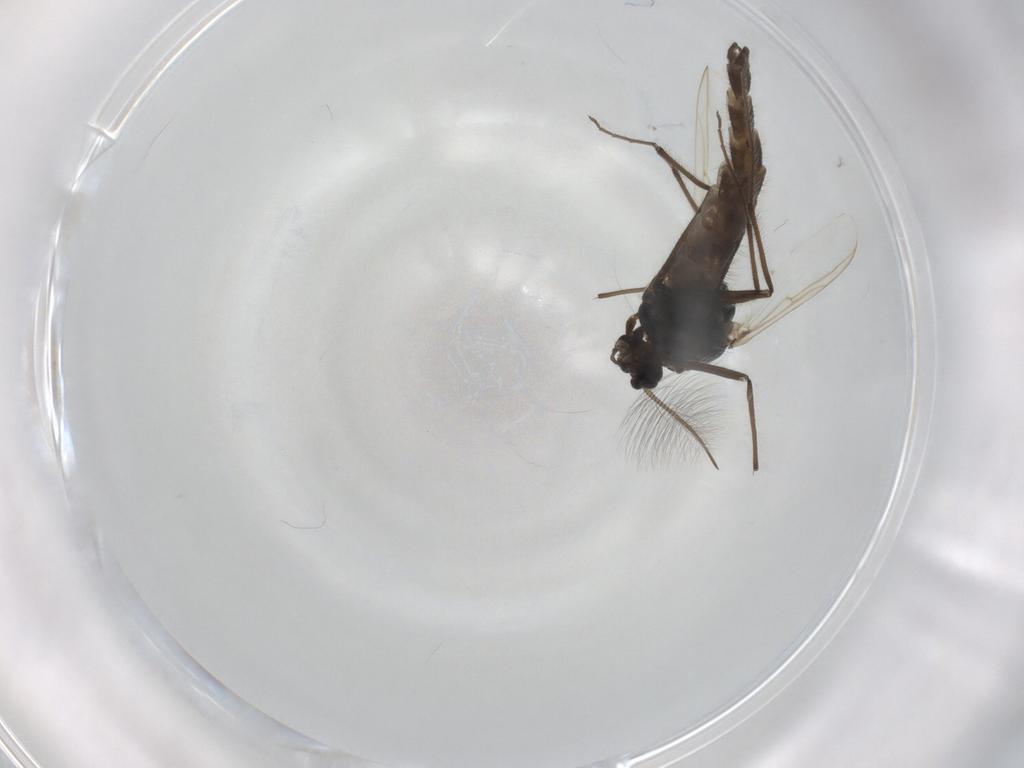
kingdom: Animalia
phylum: Arthropoda
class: Insecta
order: Diptera
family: Chironomidae
